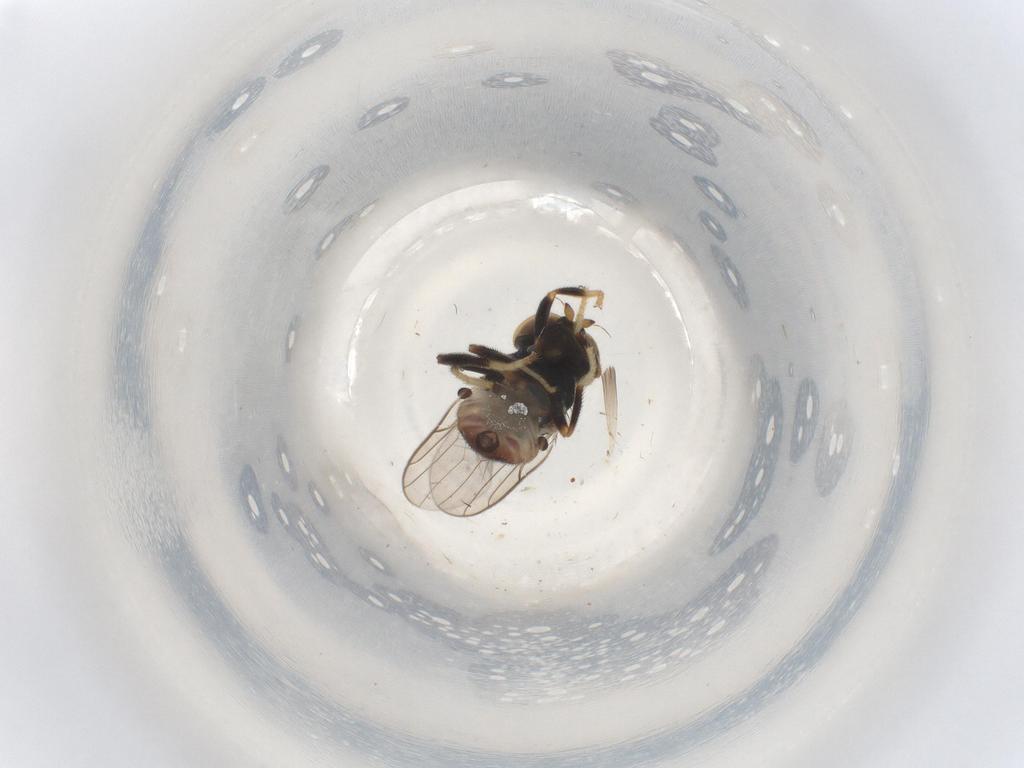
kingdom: Animalia
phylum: Arthropoda
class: Insecta
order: Diptera
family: Chloropidae
